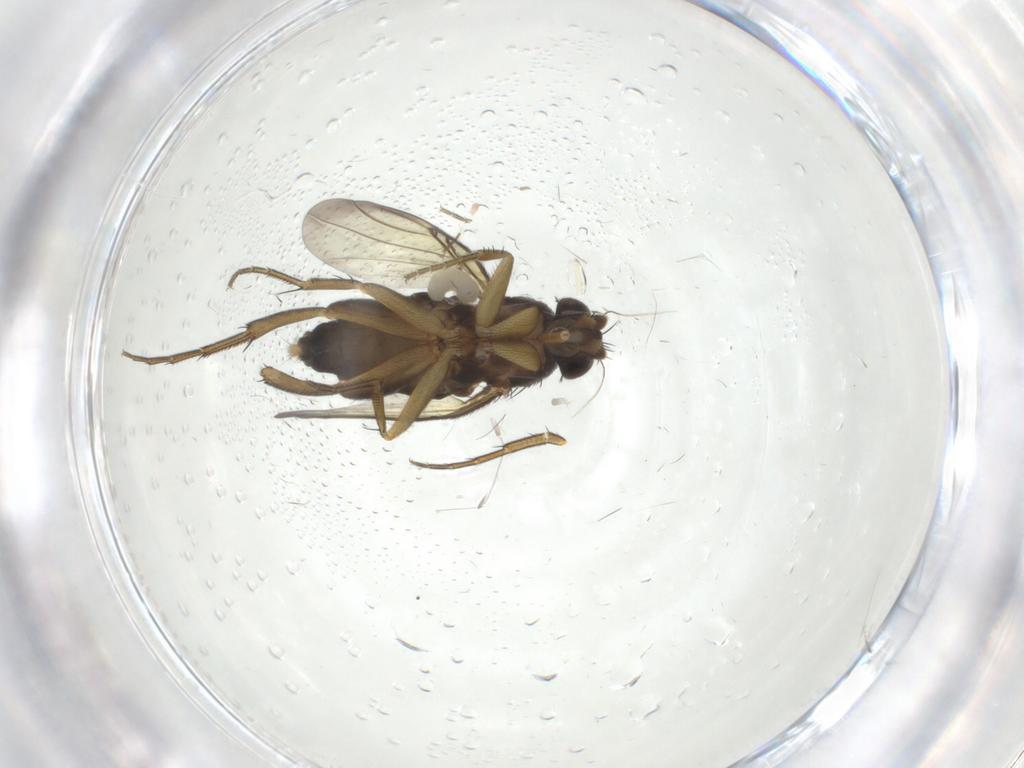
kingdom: Animalia
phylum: Arthropoda
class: Insecta
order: Diptera
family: Phoridae
